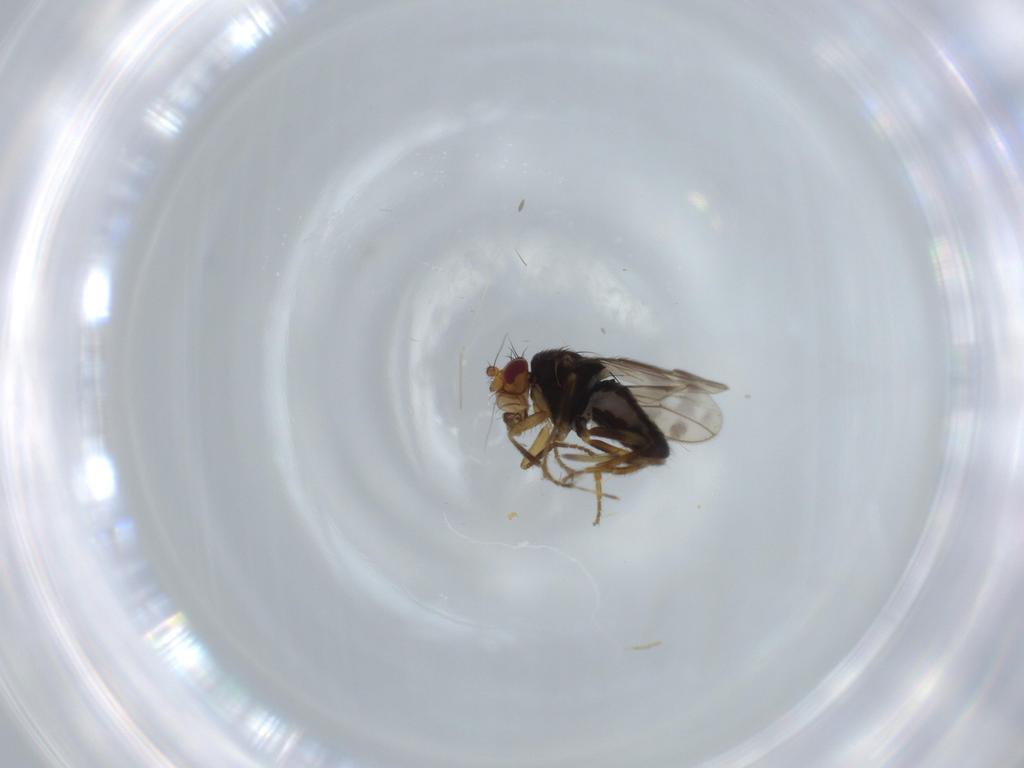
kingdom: Animalia
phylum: Arthropoda
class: Insecta
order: Diptera
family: Sphaeroceridae
